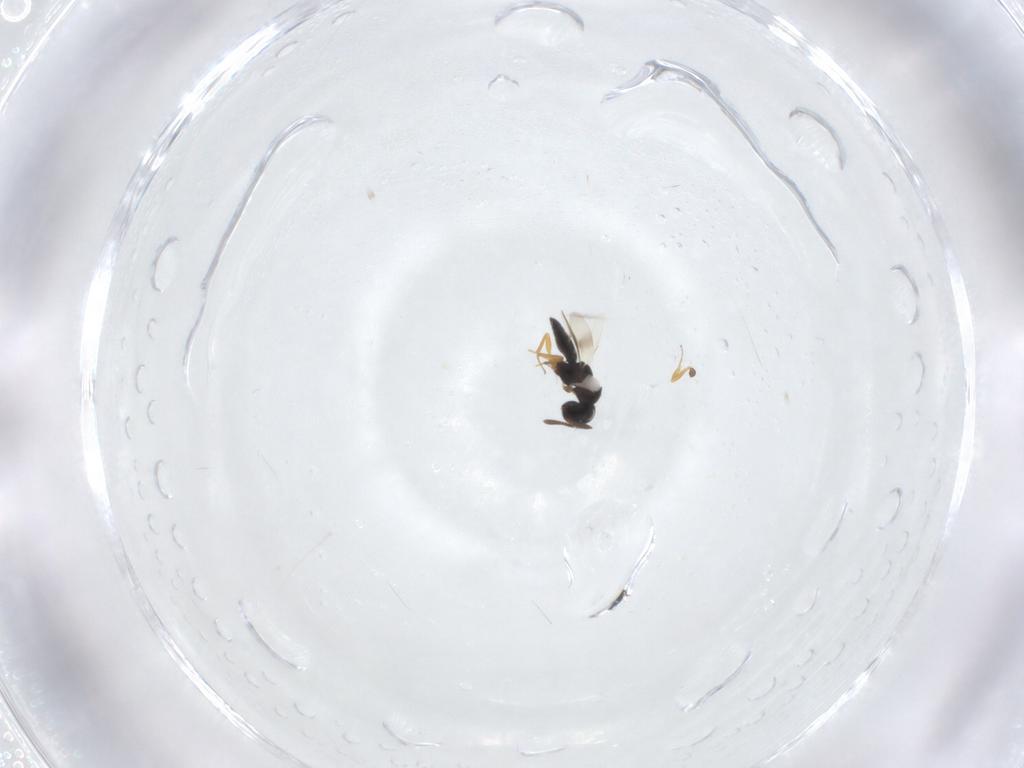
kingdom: Animalia
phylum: Arthropoda
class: Insecta
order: Hymenoptera
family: Scelionidae
